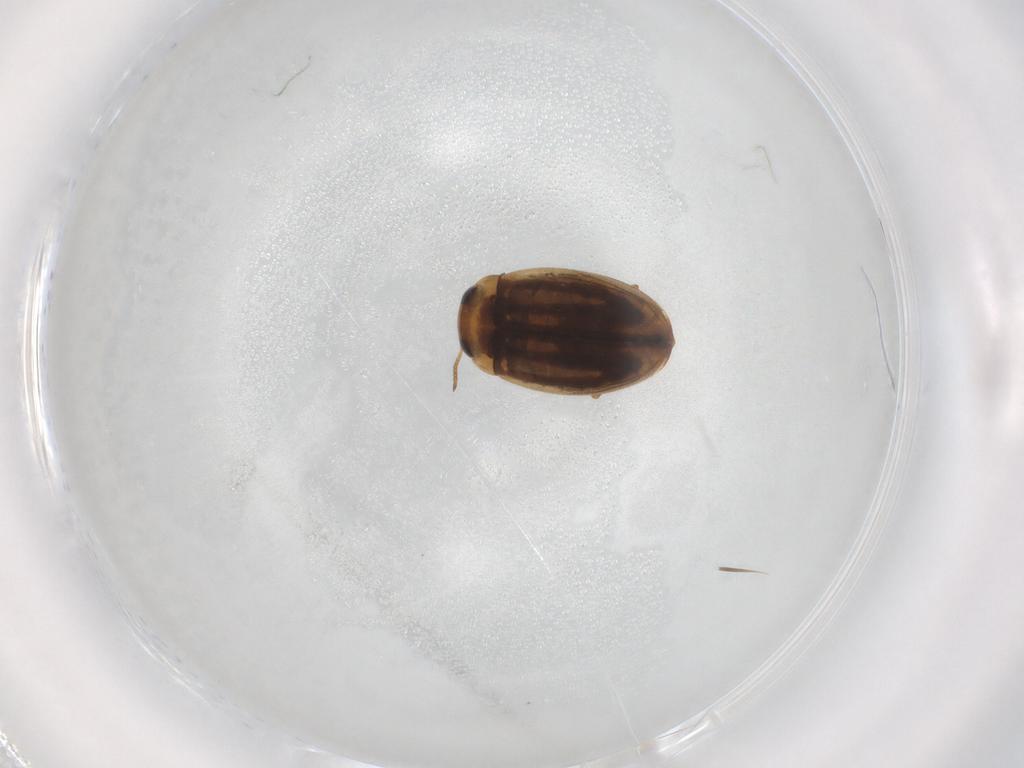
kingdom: Animalia
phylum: Arthropoda
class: Insecta
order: Coleoptera
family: Dytiscidae
